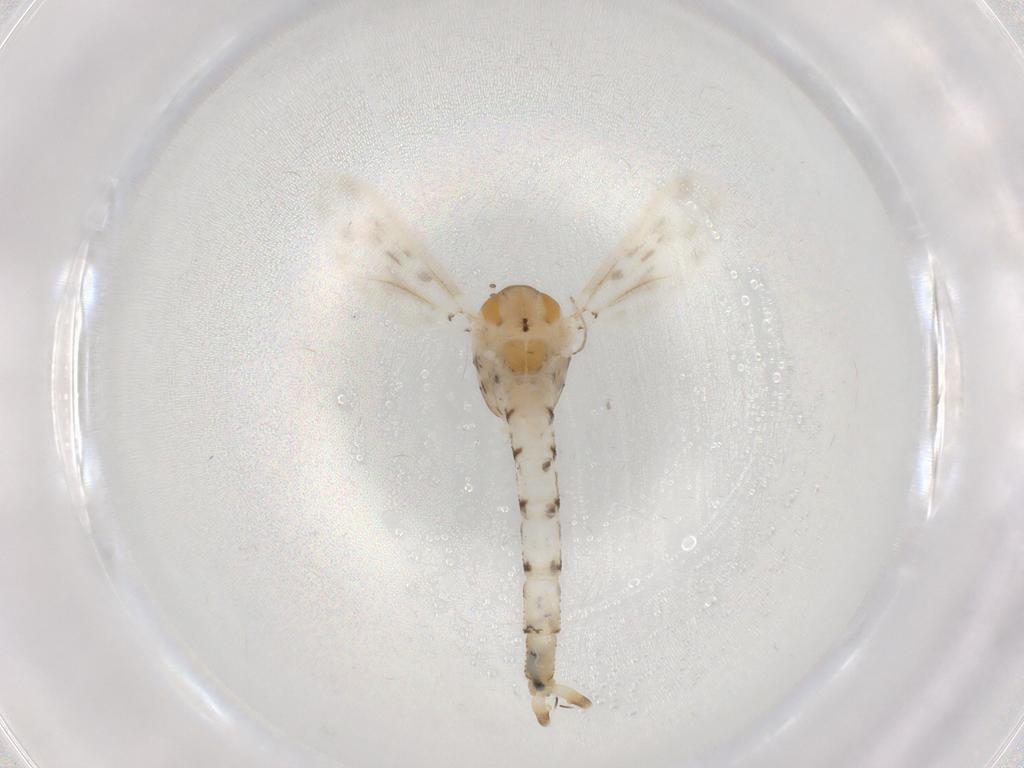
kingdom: Animalia
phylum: Arthropoda
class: Insecta
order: Diptera
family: Chaoboridae
